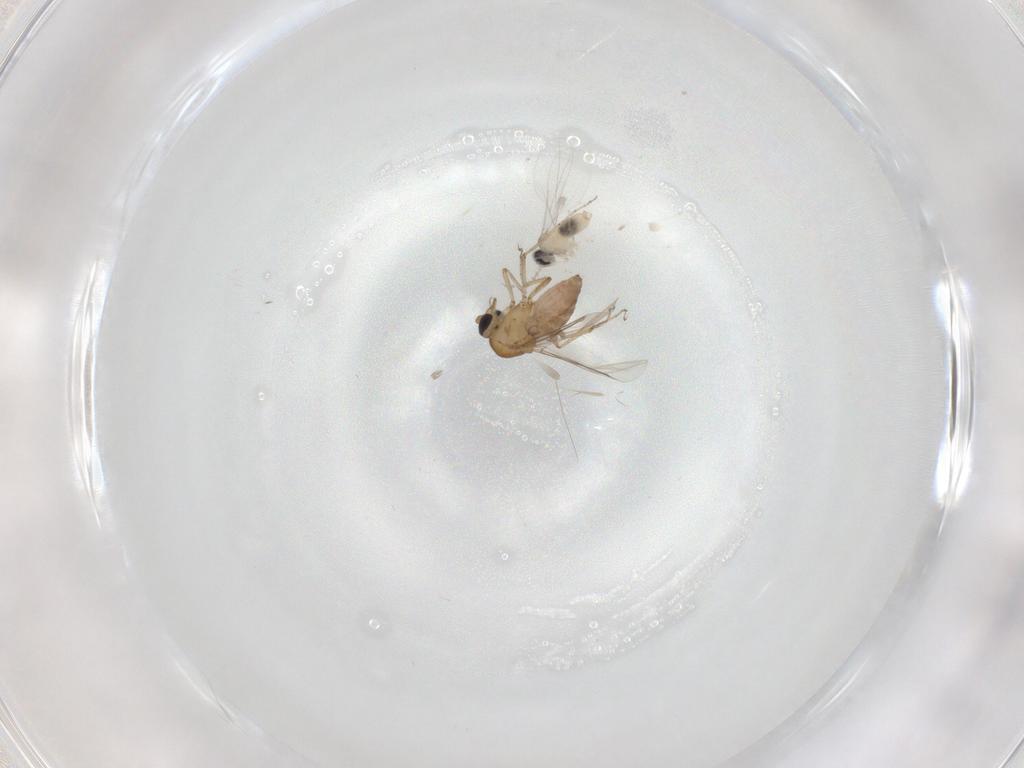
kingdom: Animalia
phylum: Arthropoda
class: Insecta
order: Diptera
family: Cecidomyiidae
